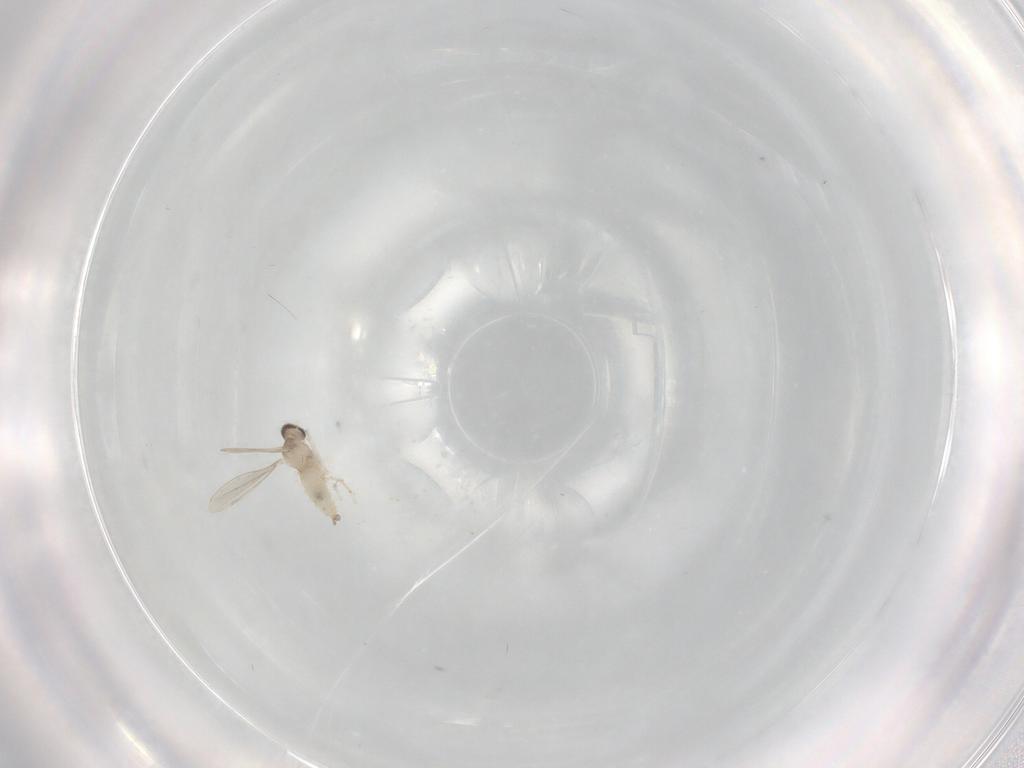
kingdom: Animalia
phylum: Arthropoda
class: Insecta
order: Diptera
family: Cecidomyiidae
